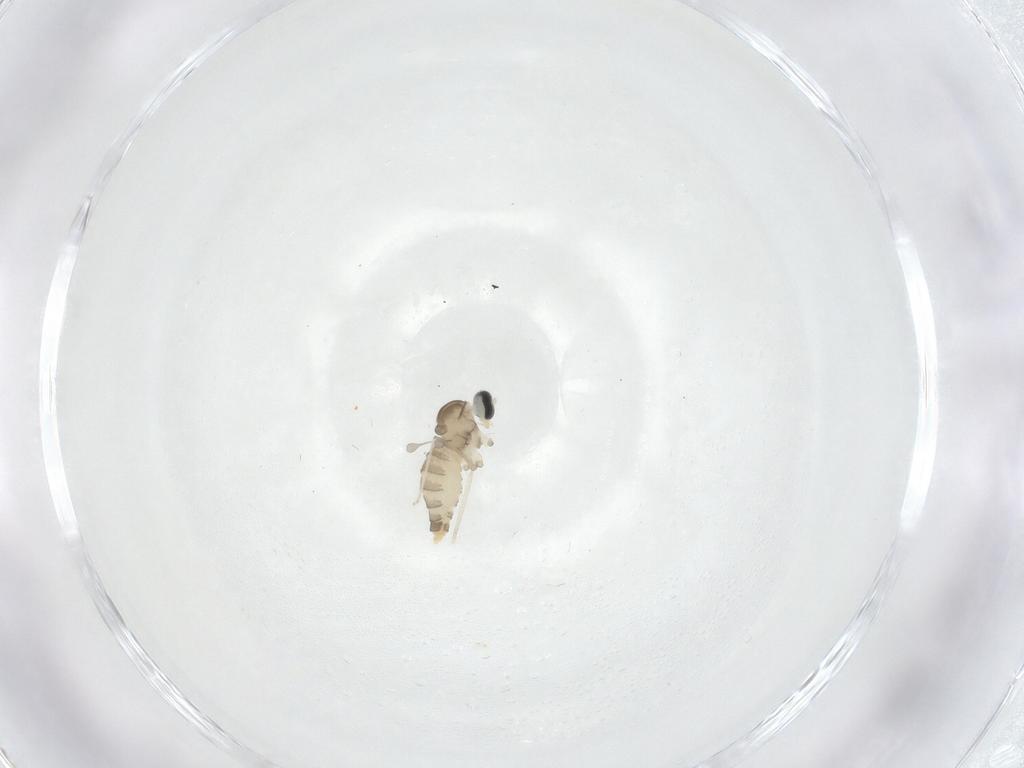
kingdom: Animalia
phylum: Arthropoda
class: Insecta
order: Diptera
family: Cecidomyiidae
